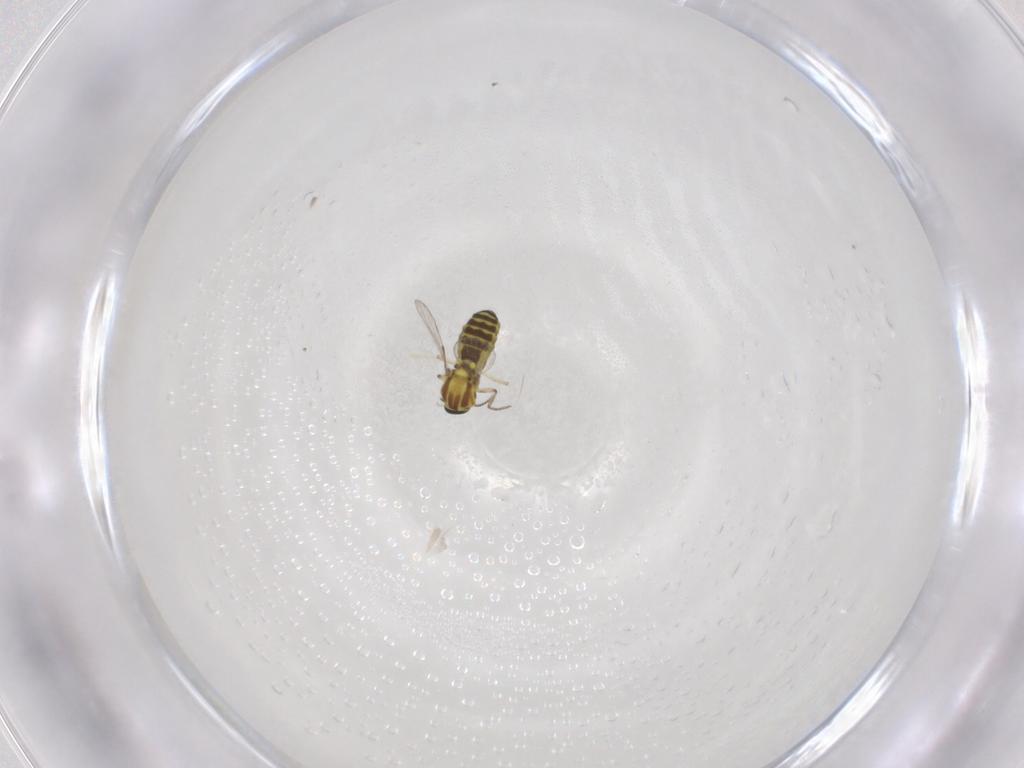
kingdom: Animalia
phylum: Arthropoda
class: Insecta
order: Diptera
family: Ceratopogonidae
